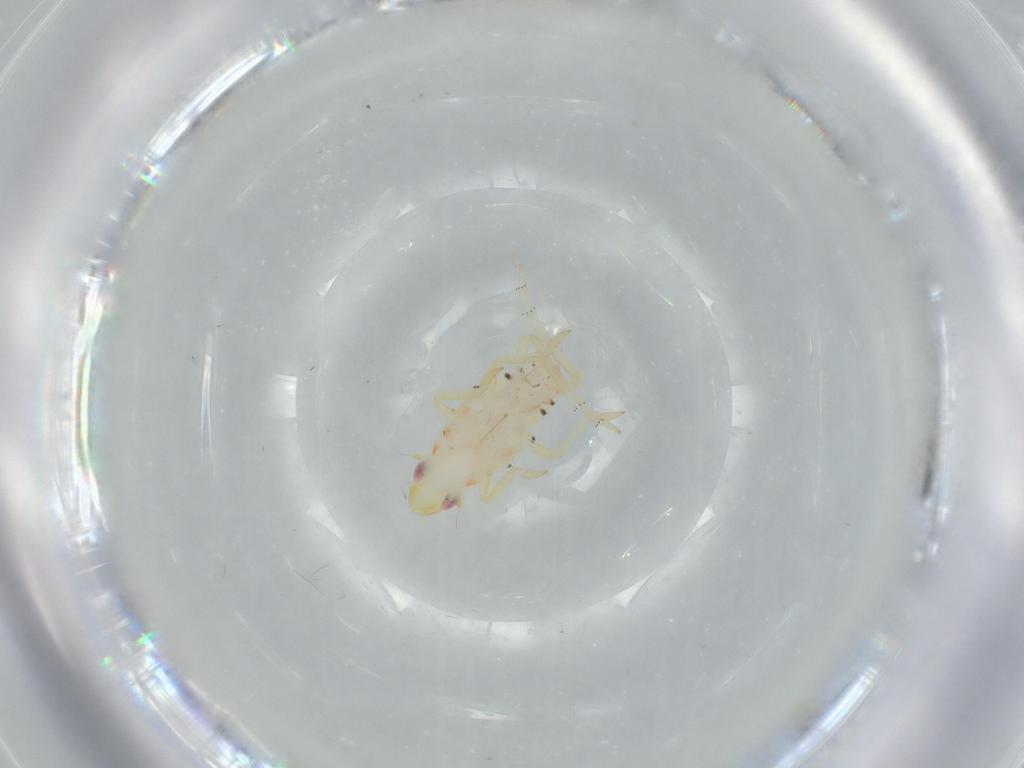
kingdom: Animalia
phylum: Arthropoda
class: Insecta
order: Hemiptera
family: Tropiduchidae
